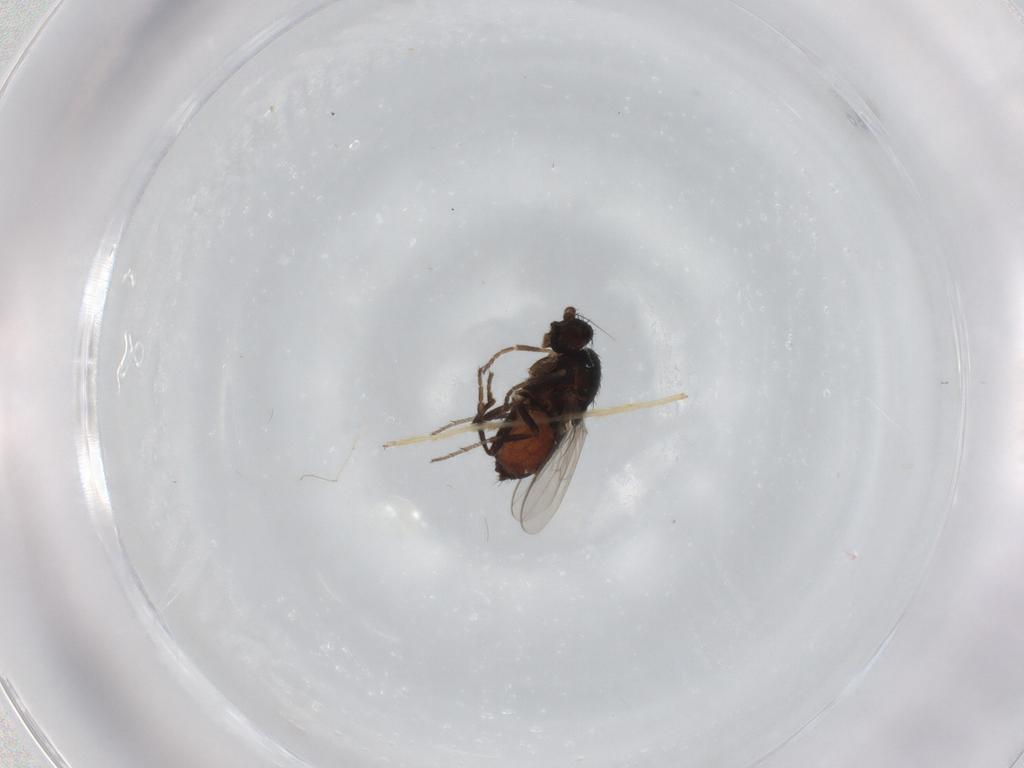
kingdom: Animalia
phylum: Arthropoda
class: Insecta
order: Diptera
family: Sphaeroceridae
